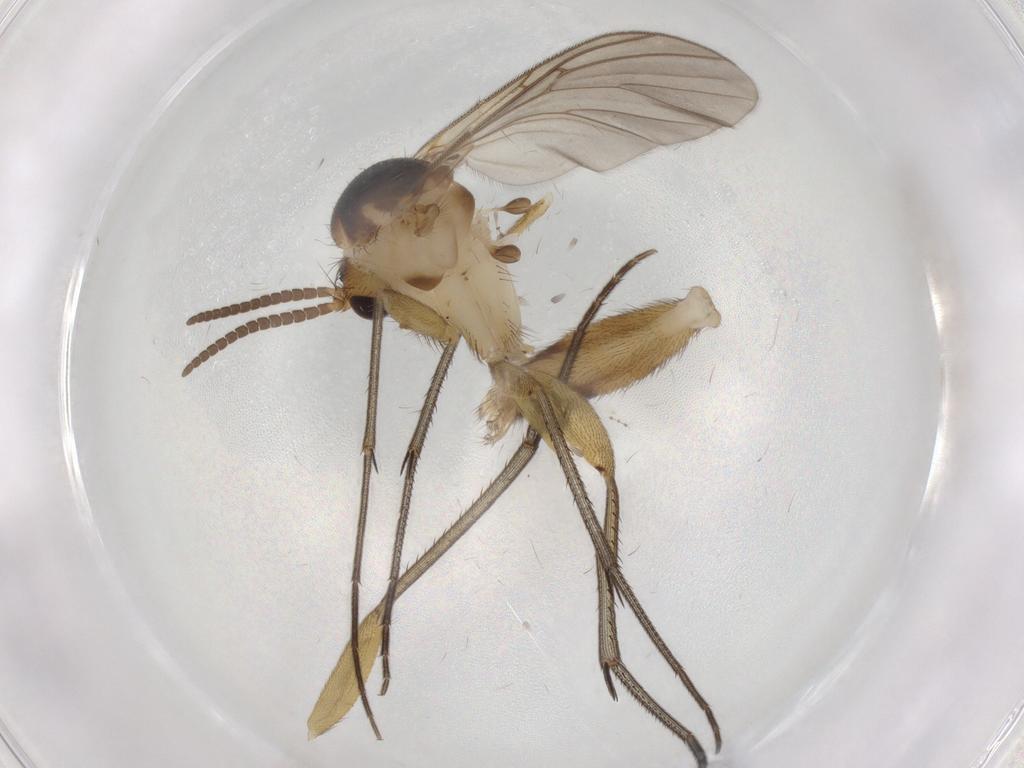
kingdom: Animalia
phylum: Arthropoda
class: Insecta
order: Diptera
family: Mycetophilidae
